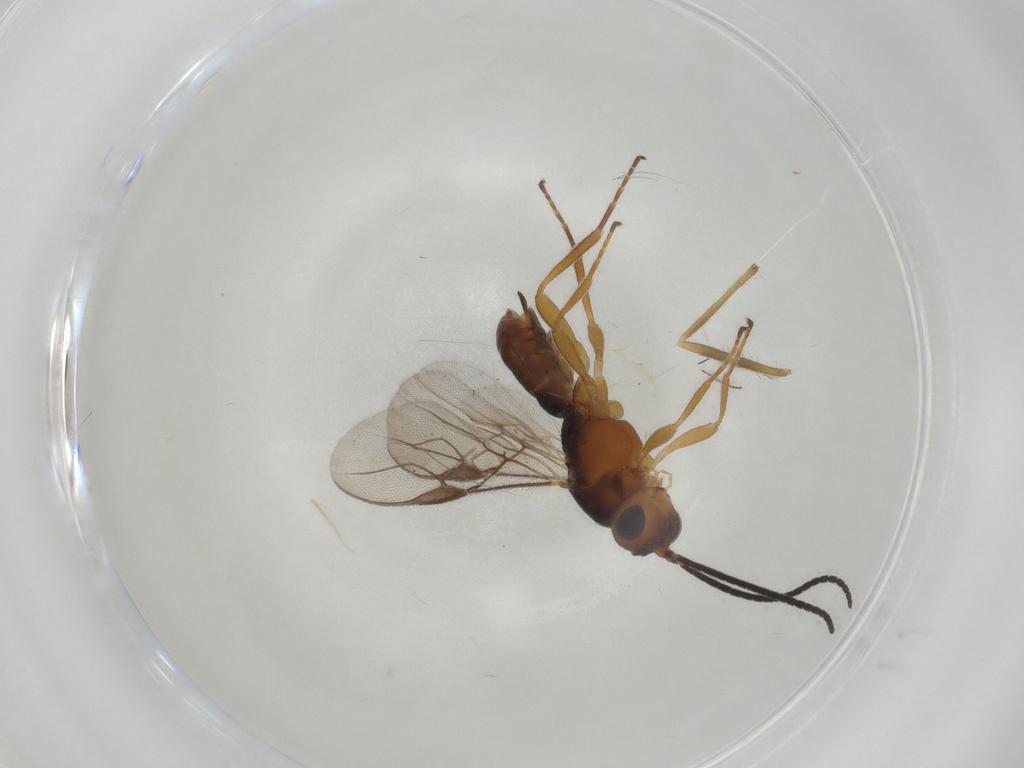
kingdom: Animalia
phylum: Arthropoda
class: Insecta
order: Hymenoptera
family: Braconidae
